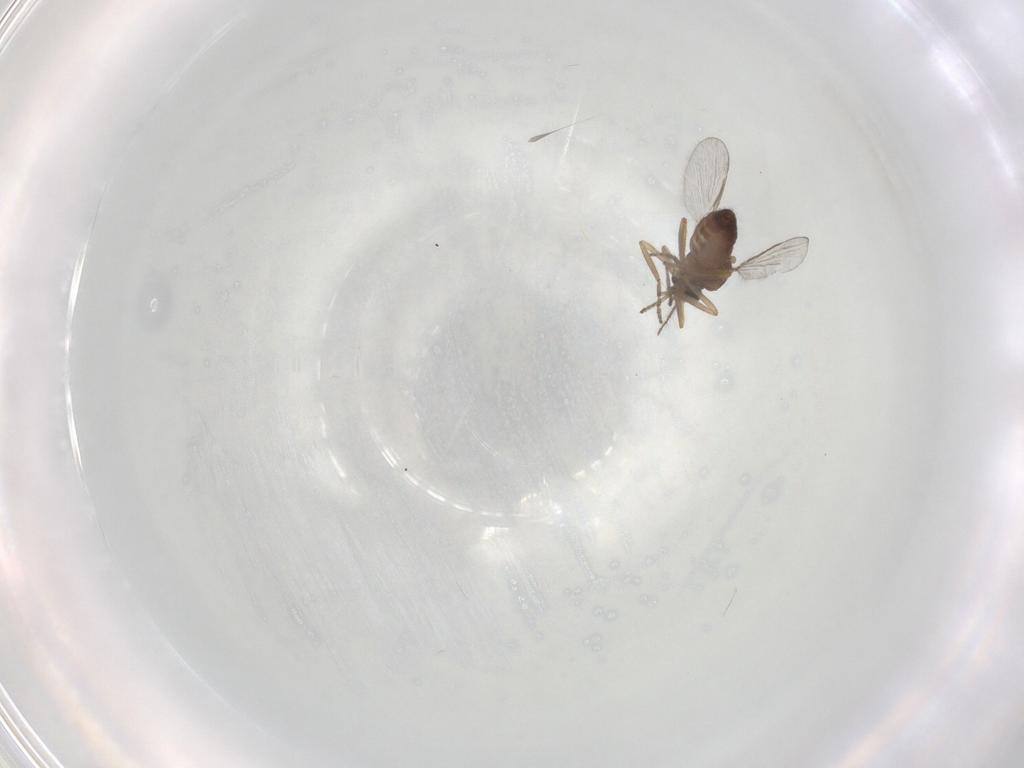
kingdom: Animalia
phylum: Arthropoda
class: Insecta
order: Diptera
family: Ceratopogonidae
